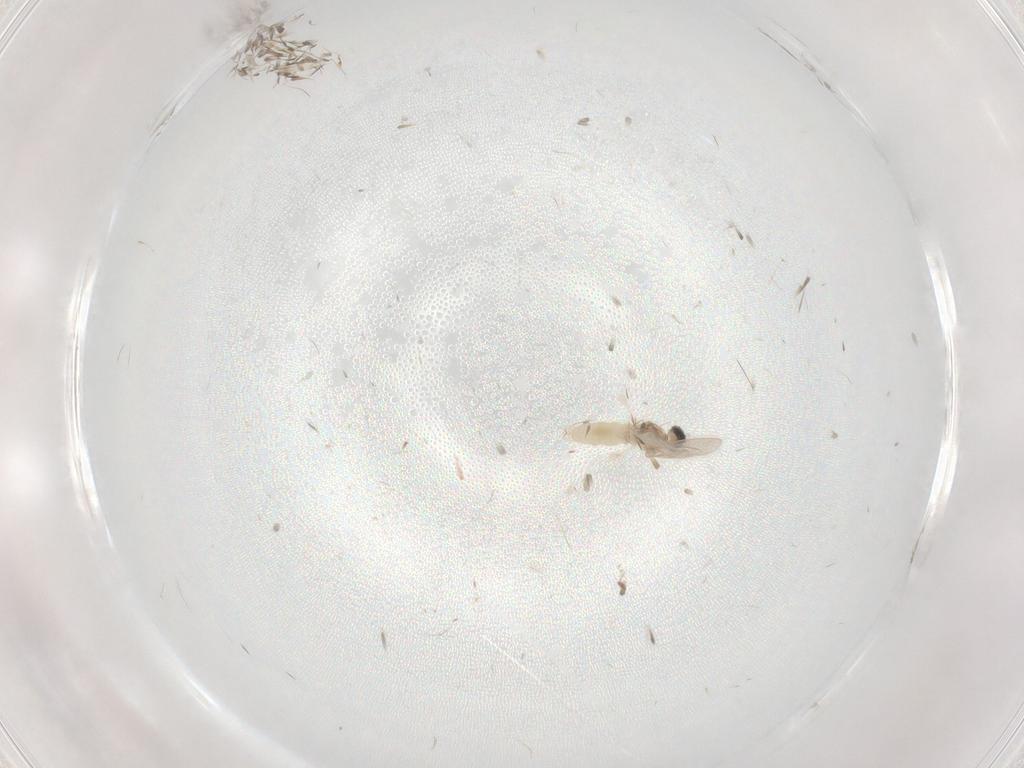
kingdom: Animalia
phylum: Arthropoda
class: Insecta
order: Diptera
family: Cecidomyiidae
